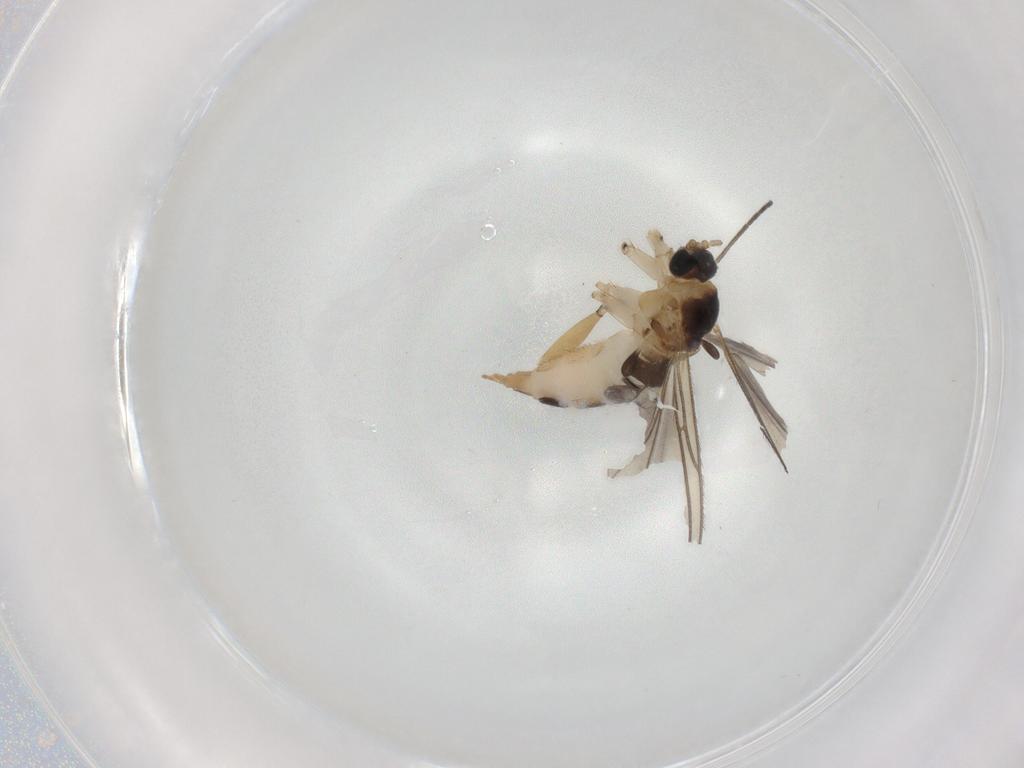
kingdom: Animalia
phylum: Arthropoda
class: Insecta
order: Diptera
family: Sciaridae
